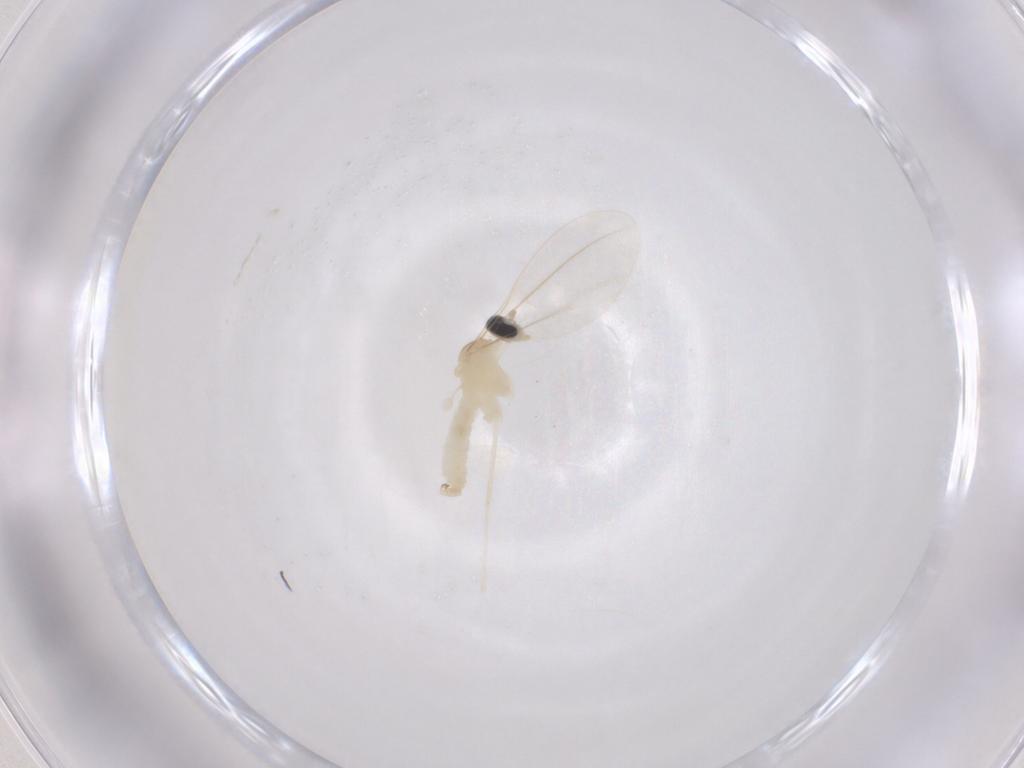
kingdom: Animalia
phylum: Arthropoda
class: Insecta
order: Diptera
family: Cecidomyiidae
